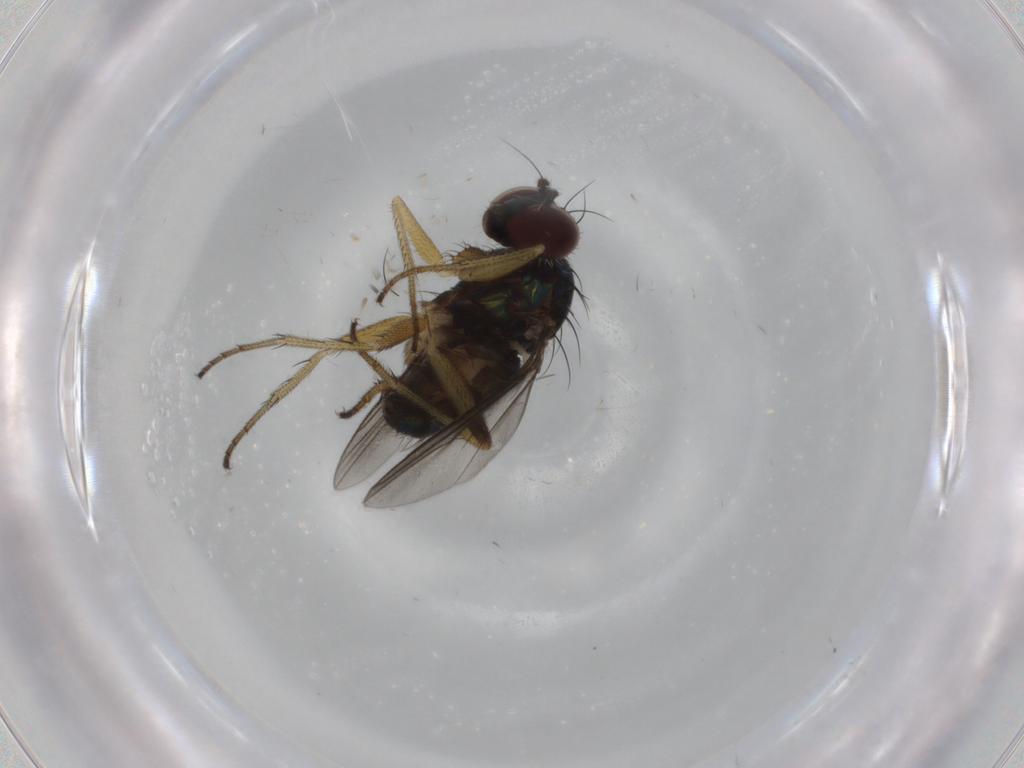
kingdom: Animalia
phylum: Arthropoda
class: Insecta
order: Diptera
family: Dolichopodidae
